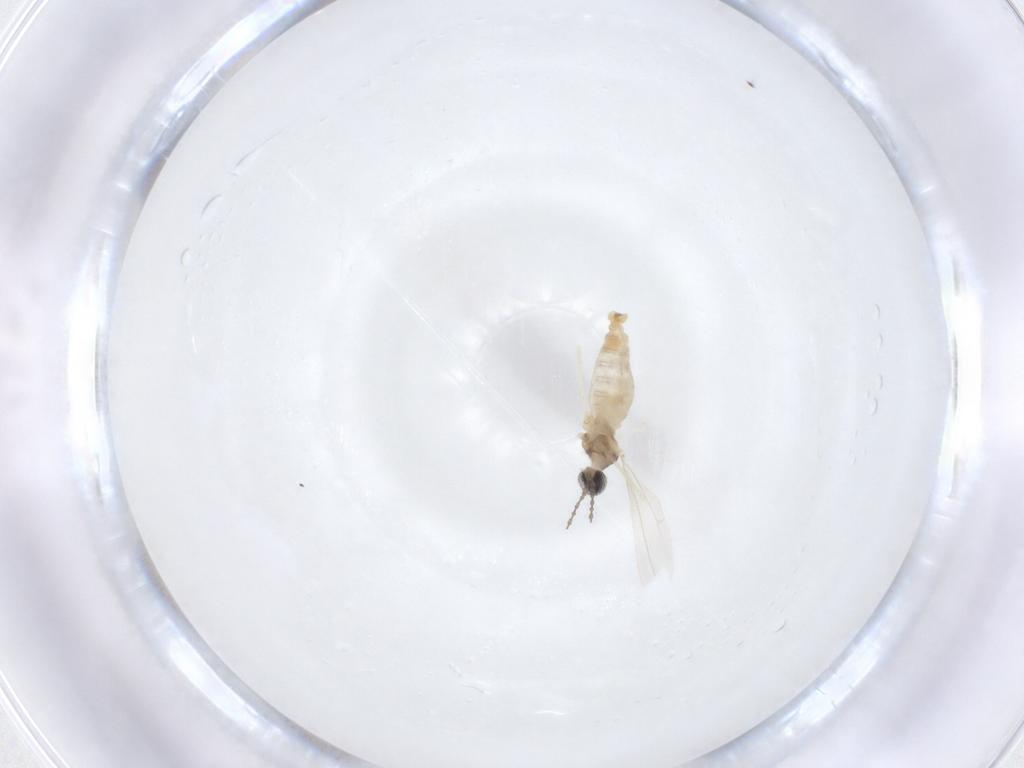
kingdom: Animalia
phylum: Arthropoda
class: Insecta
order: Diptera
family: Cecidomyiidae
